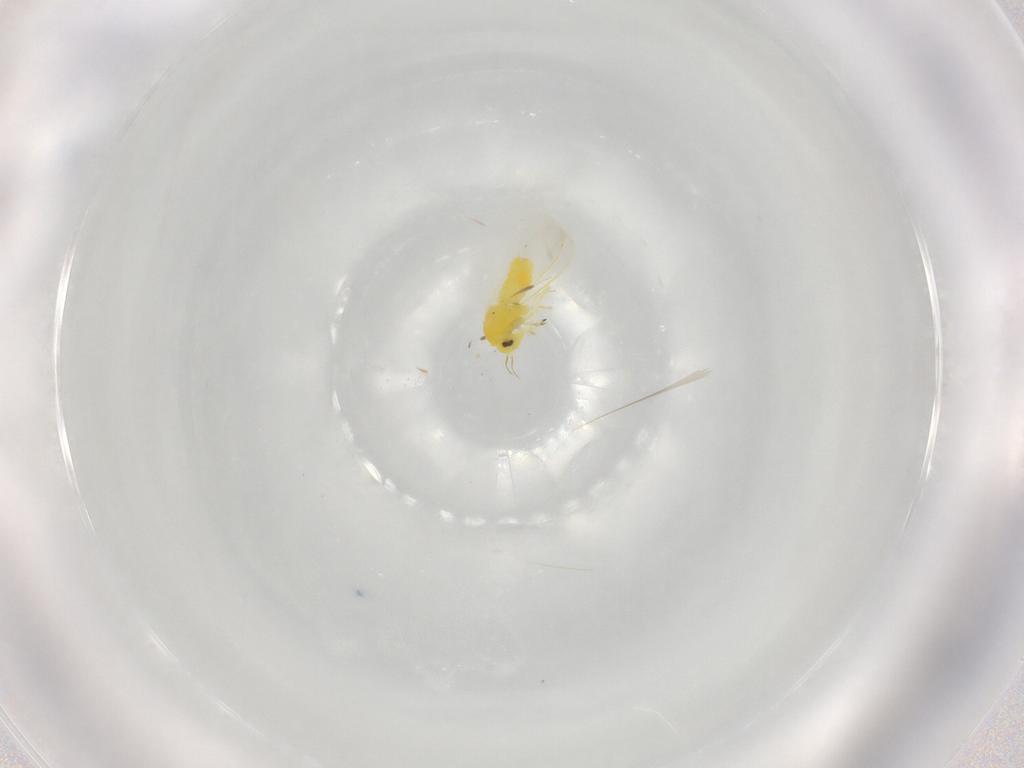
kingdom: Animalia
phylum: Arthropoda
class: Insecta
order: Hemiptera
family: Aleyrodidae
